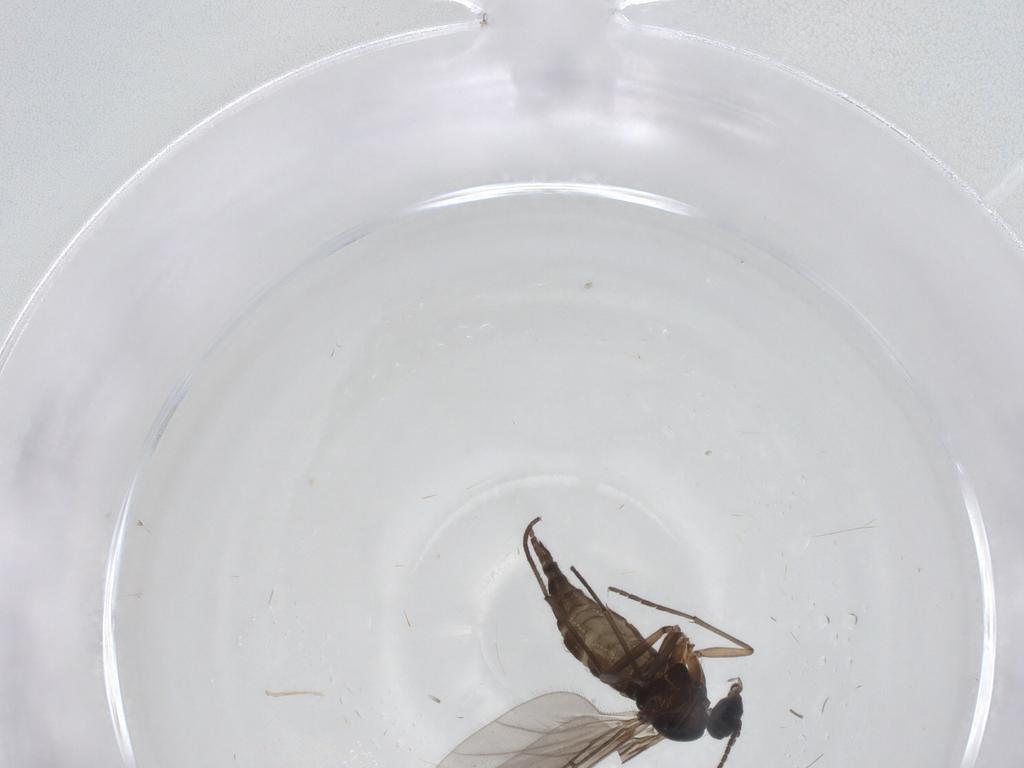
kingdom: Animalia
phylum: Arthropoda
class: Insecta
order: Diptera
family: Sciaridae
